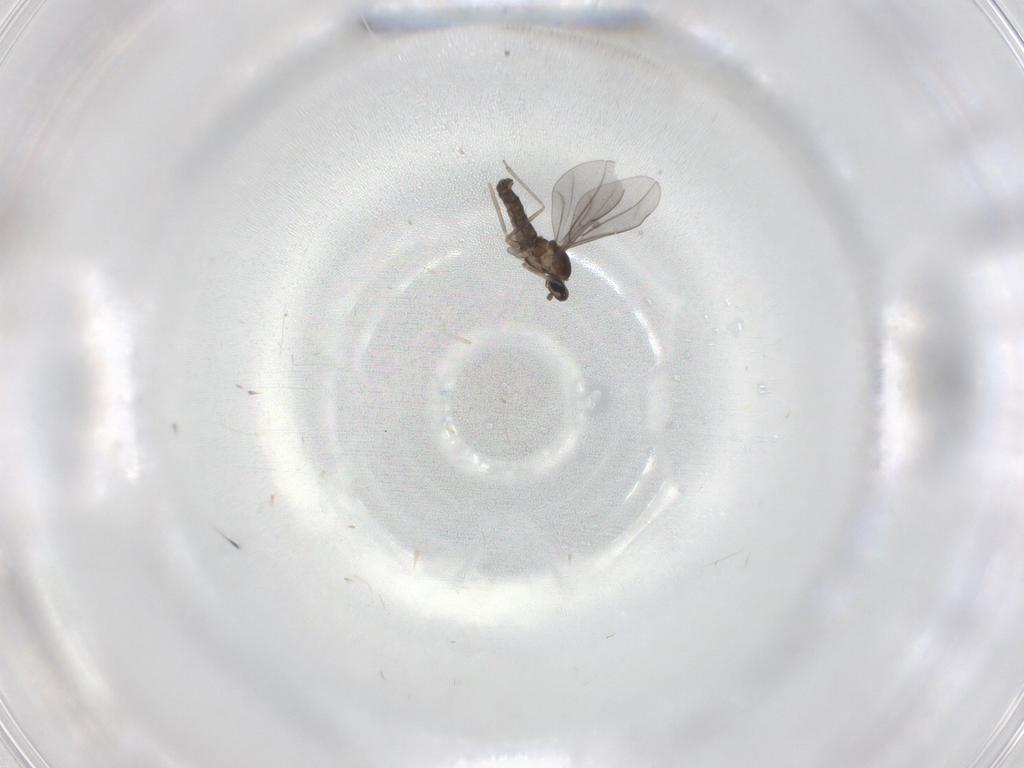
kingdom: Animalia
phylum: Arthropoda
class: Insecta
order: Diptera
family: Cecidomyiidae
